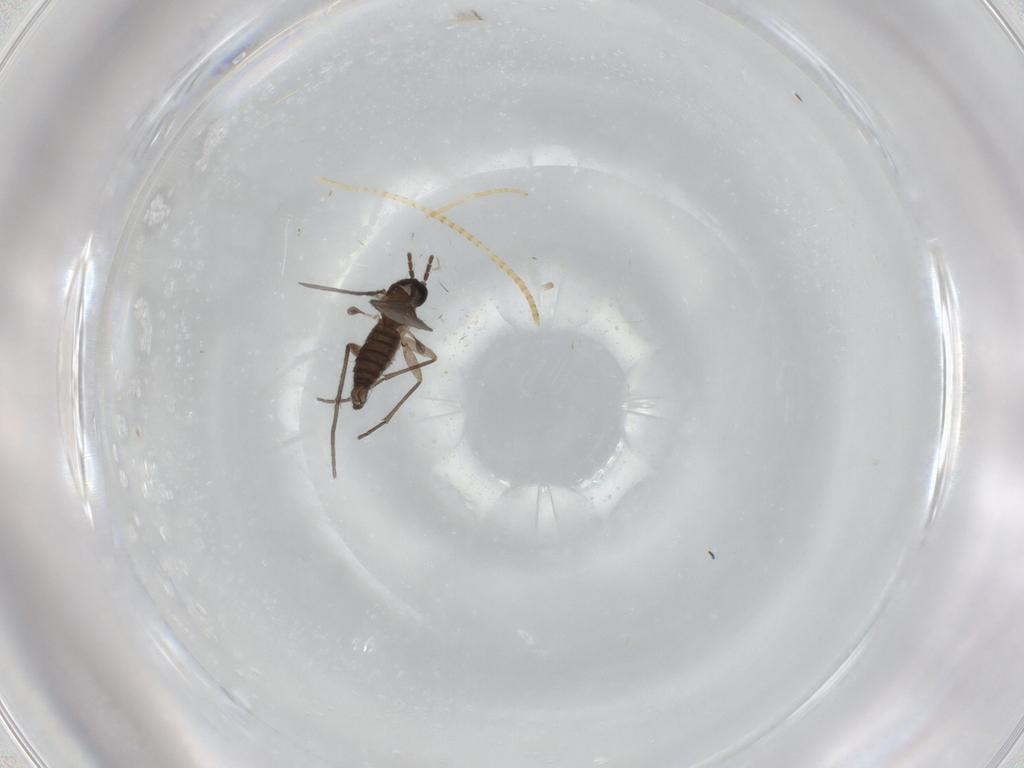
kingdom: Animalia
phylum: Arthropoda
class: Insecta
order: Diptera
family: Sciaridae
